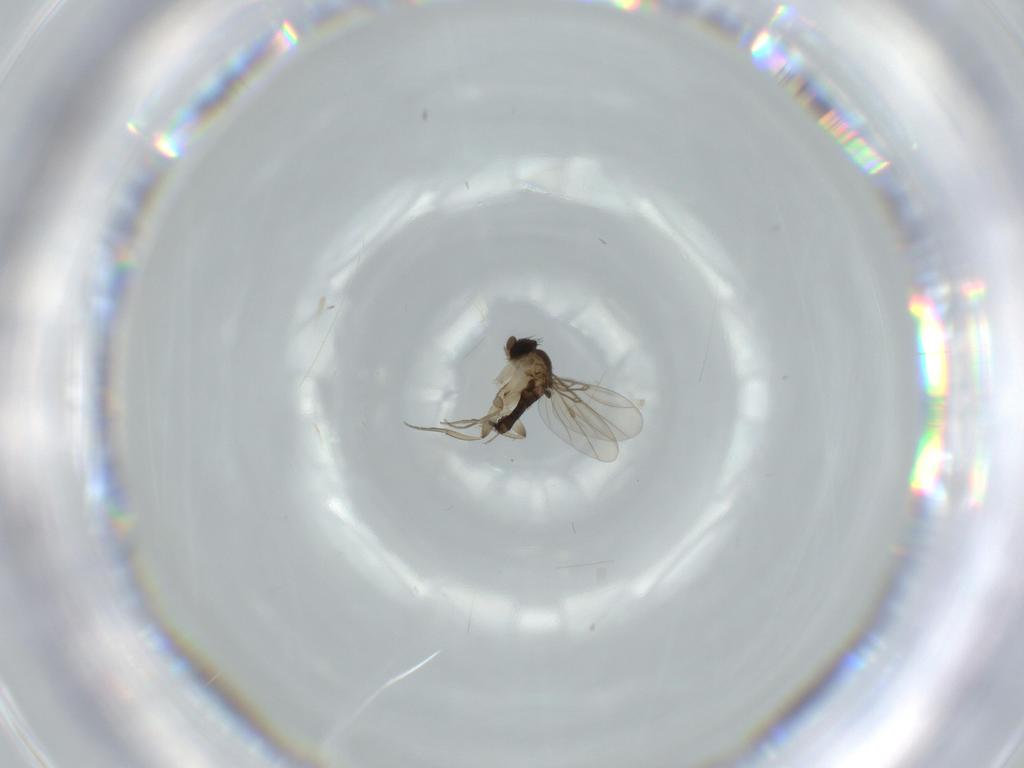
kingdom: Animalia
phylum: Arthropoda
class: Insecta
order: Diptera
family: Phoridae
